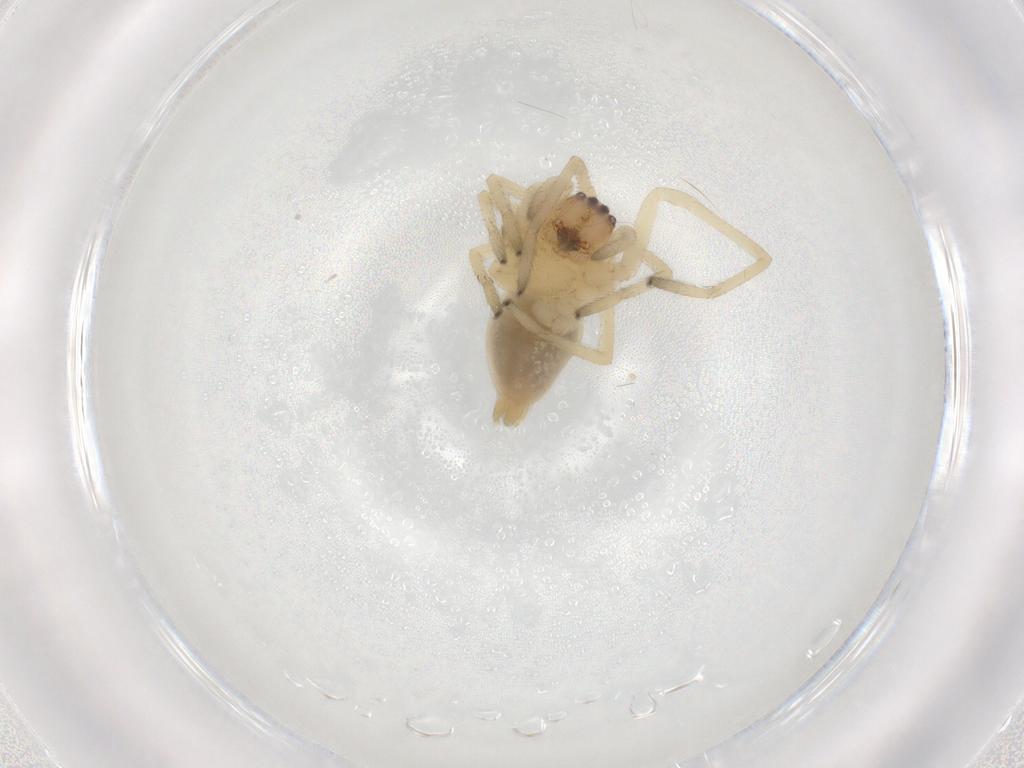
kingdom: Animalia
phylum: Arthropoda
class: Arachnida
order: Araneae
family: Cheiracanthiidae
